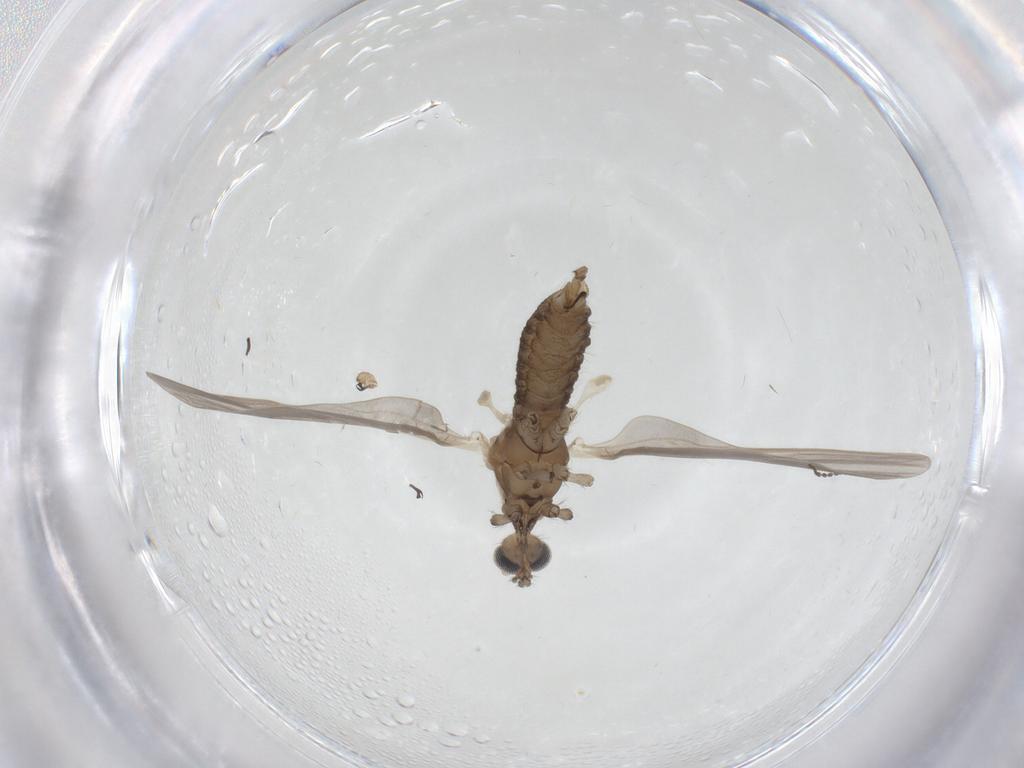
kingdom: Animalia
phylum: Arthropoda
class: Insecta
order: Diptera
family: Limoniidae
